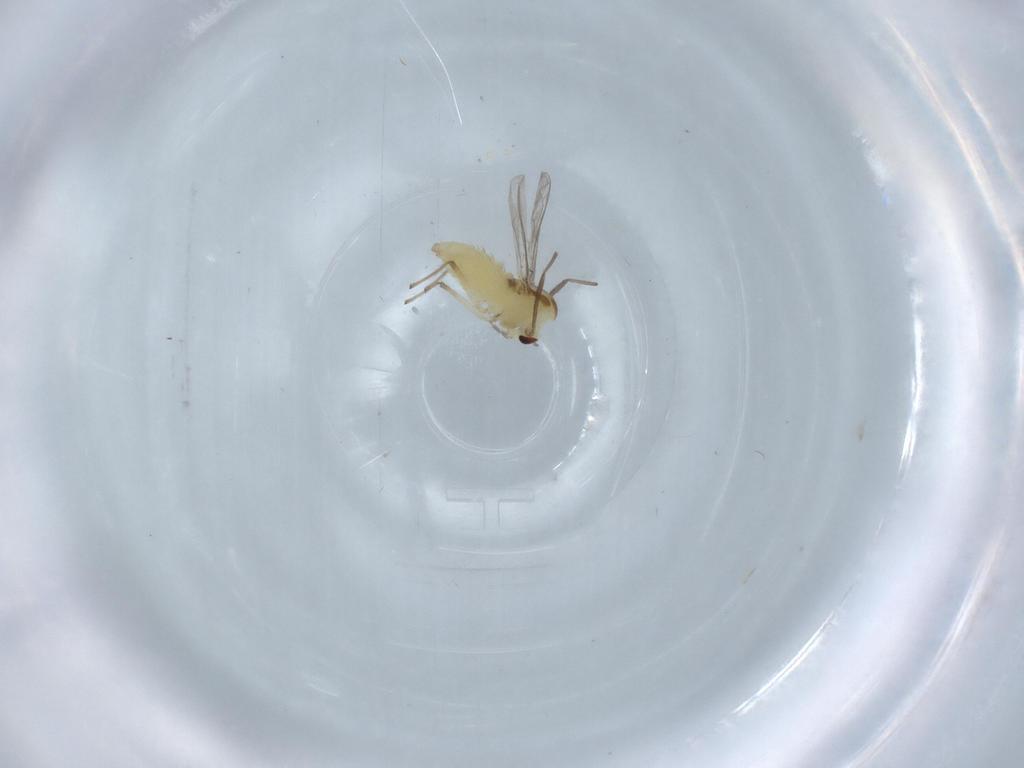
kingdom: Animalia
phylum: Arthropoda
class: Insecta
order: Diptera
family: Chironomidae
